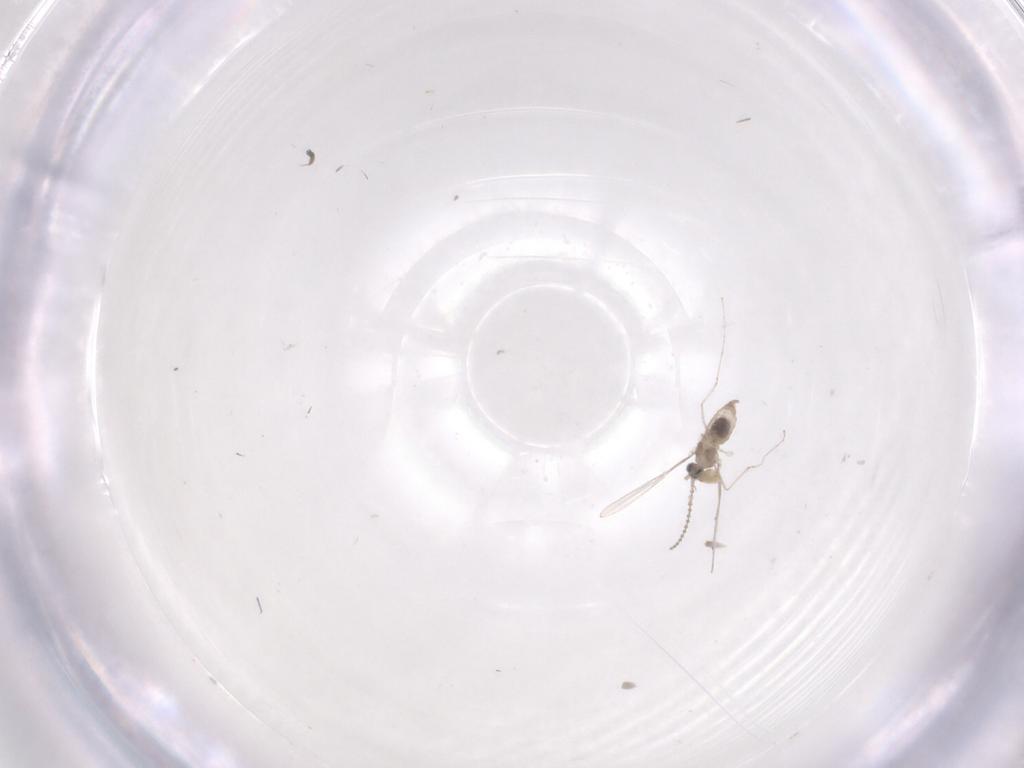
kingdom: Animalia
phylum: Arthropoda
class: Insecta
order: Diptera
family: Cecidomyiidae
